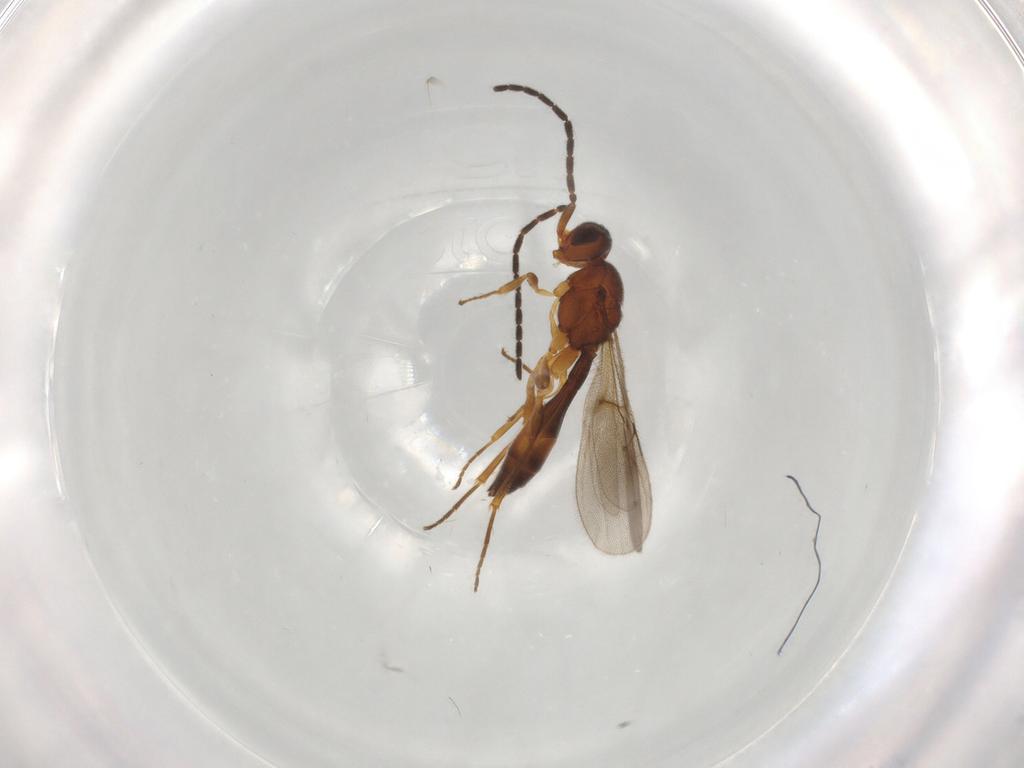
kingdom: Animalia
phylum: Arthropoda
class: Insecta
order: Hymenoptera
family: Scelionidae
